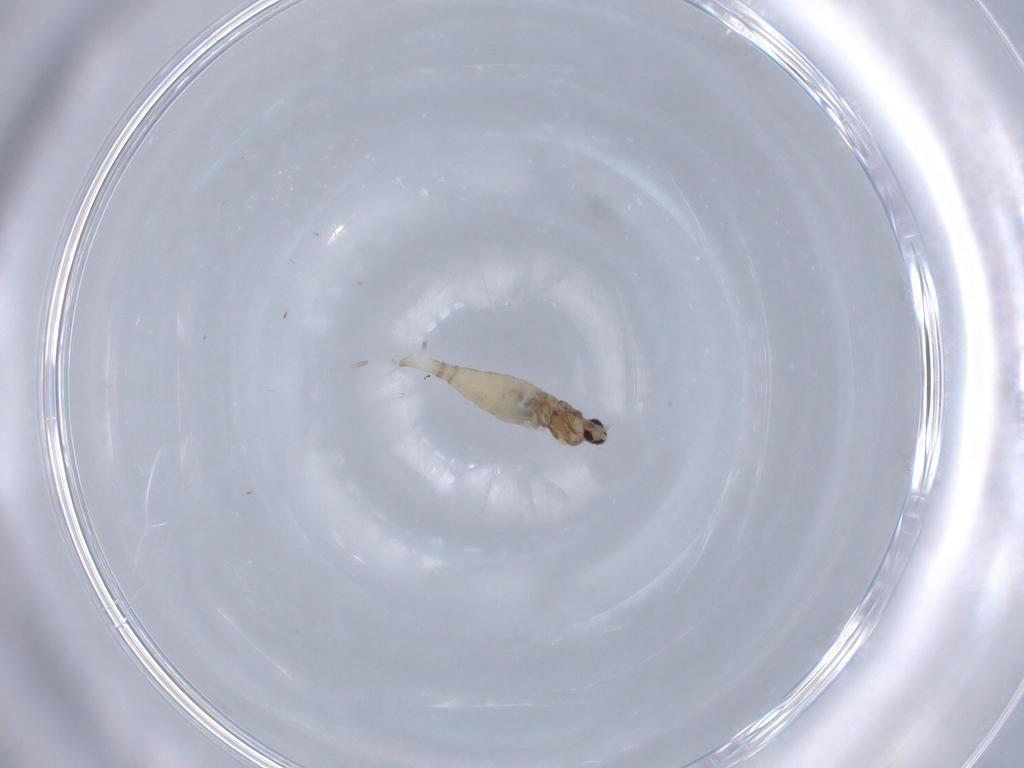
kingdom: Animalia
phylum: Arthropoda
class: Insecta
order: Diptera
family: Cecidomyiidae
